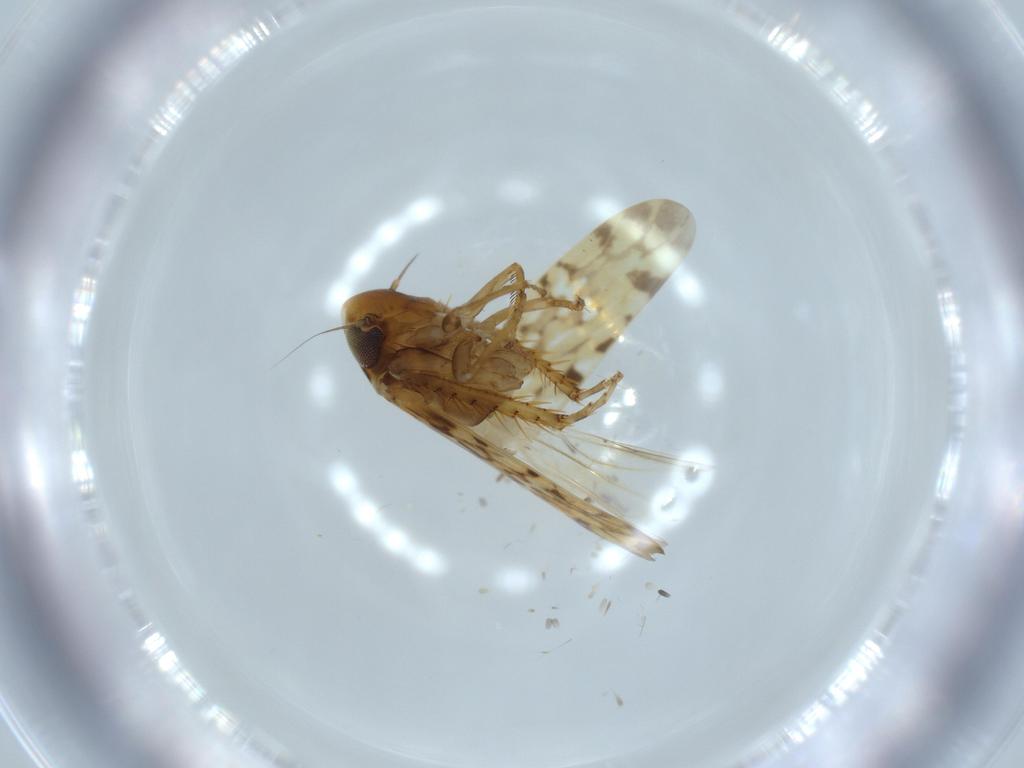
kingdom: Animalia
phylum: Arthropoda
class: Insecta
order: Hemiptera
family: Cicadellidae
